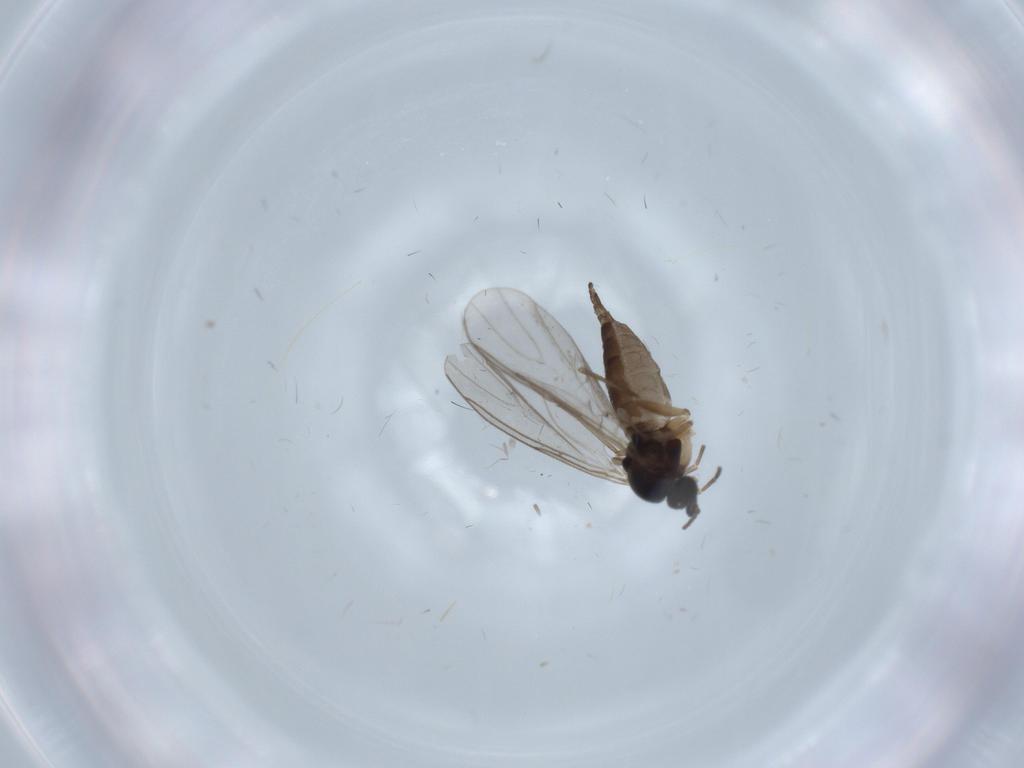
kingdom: Animalia
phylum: Arthropoda
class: Insecta
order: Diptera
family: Sciaridae
